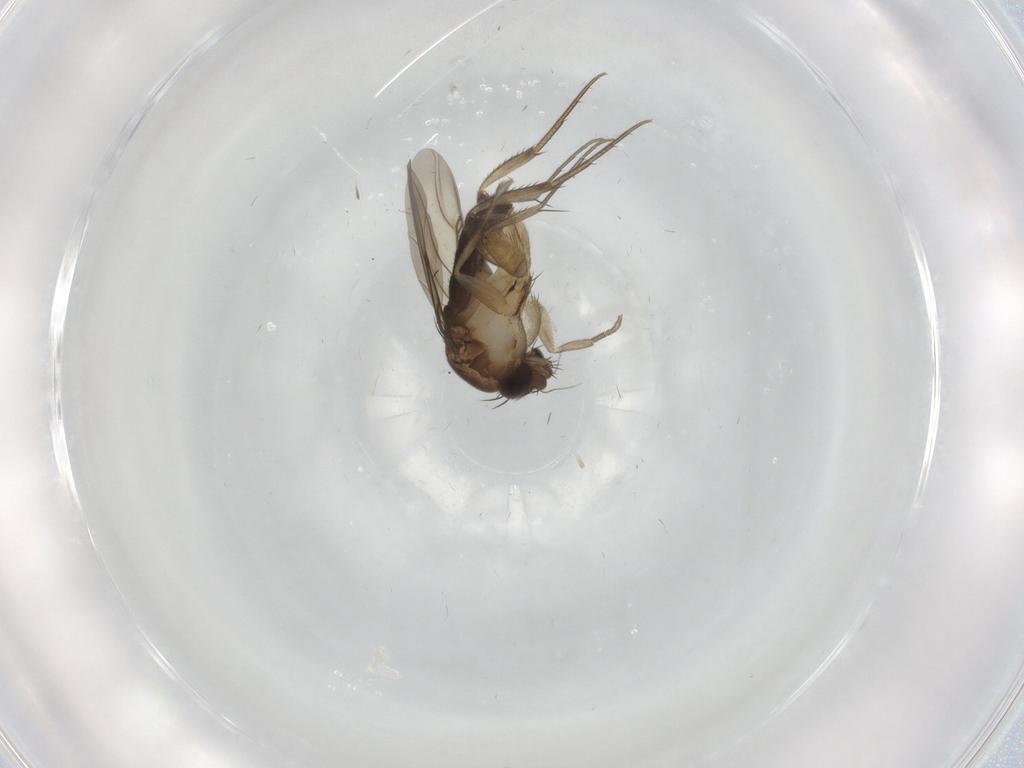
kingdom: Animalia
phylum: Arthropoda
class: Insecta
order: Diptera
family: Phoridae
